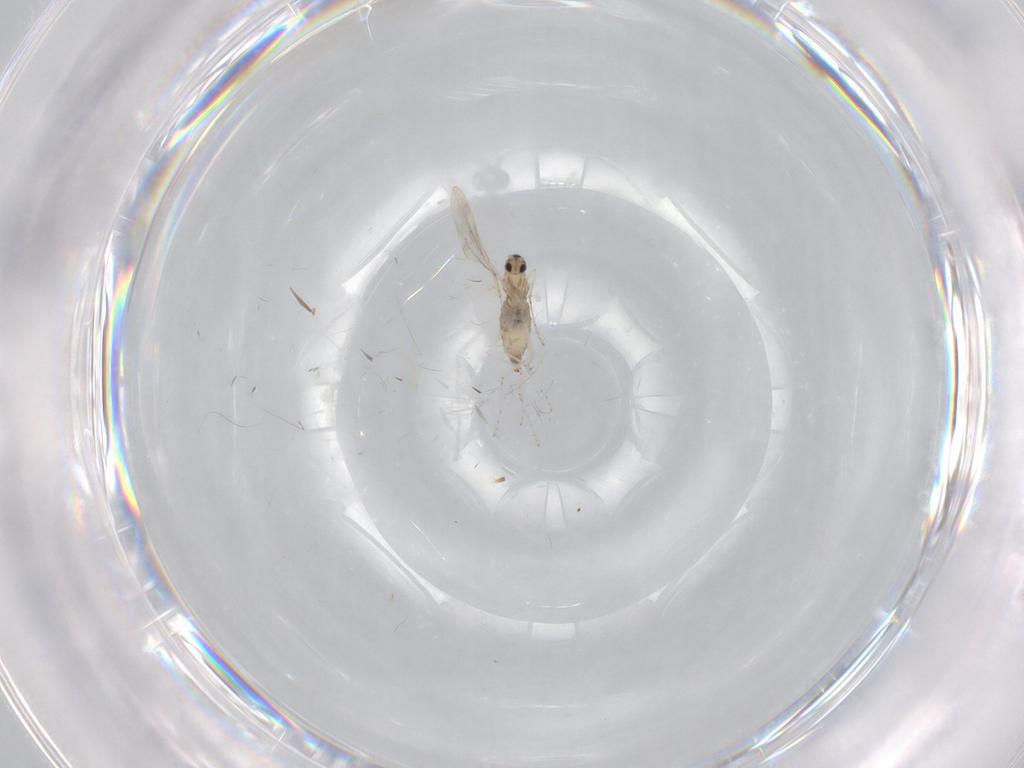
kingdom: Animalia
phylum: Arthropoda
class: Insecta
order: Diptera
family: Cecidomyiidae
